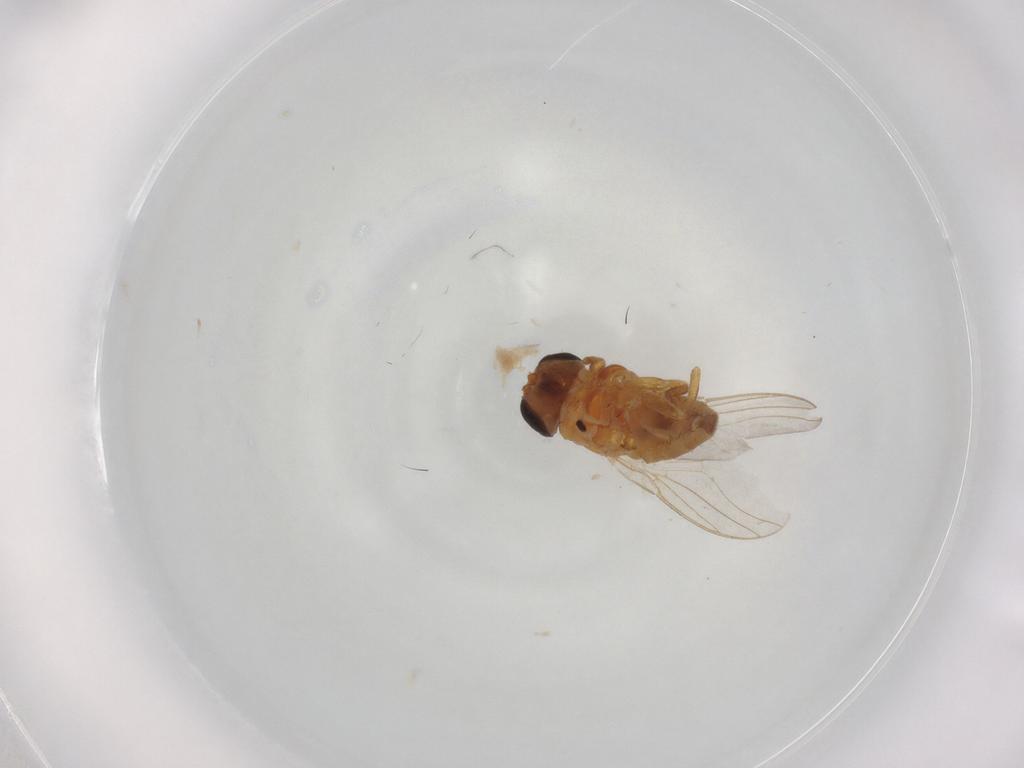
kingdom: Animalia
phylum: Arthropoda
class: Insecta
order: Diptera
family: Chloropidae
